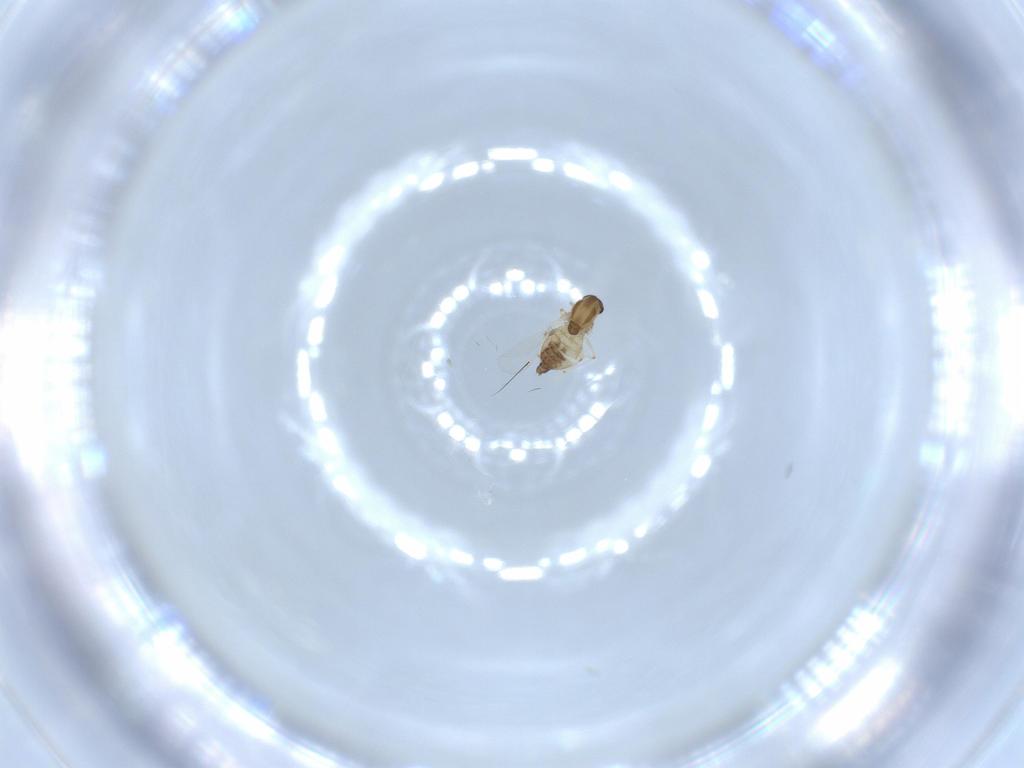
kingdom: Animalia
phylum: Arthropoda
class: Insecta
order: Diptera
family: Chironomidae
